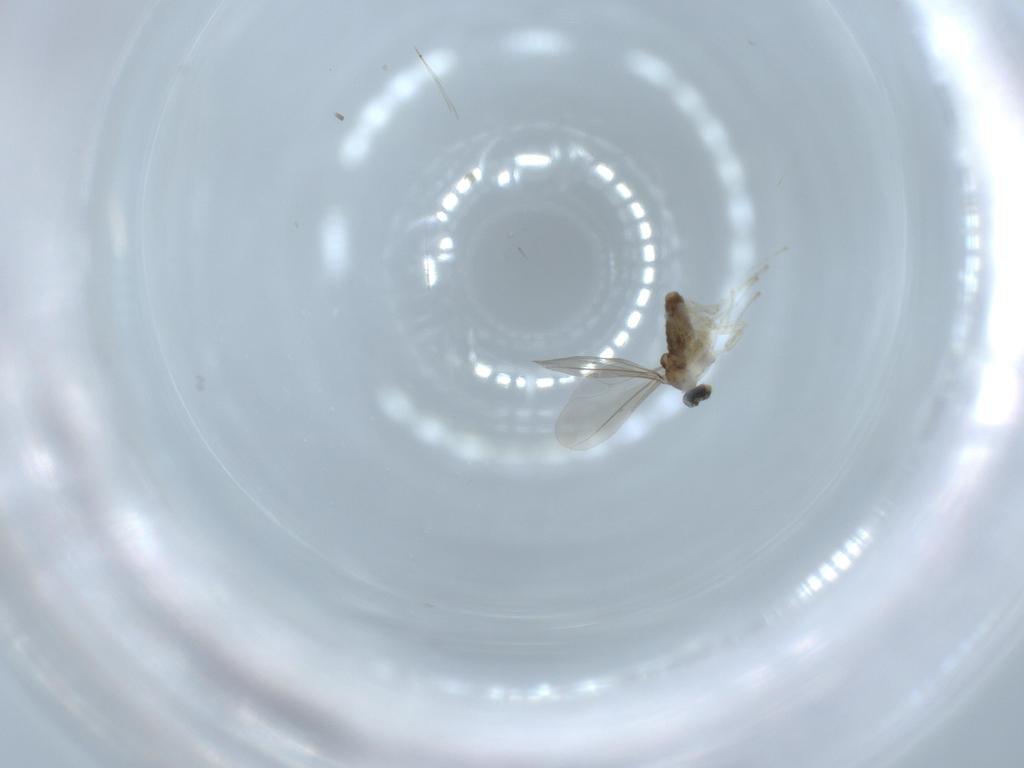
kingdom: Animalia
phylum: Arthropoda
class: Insecta
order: Diptera
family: Cecidomyiidae
